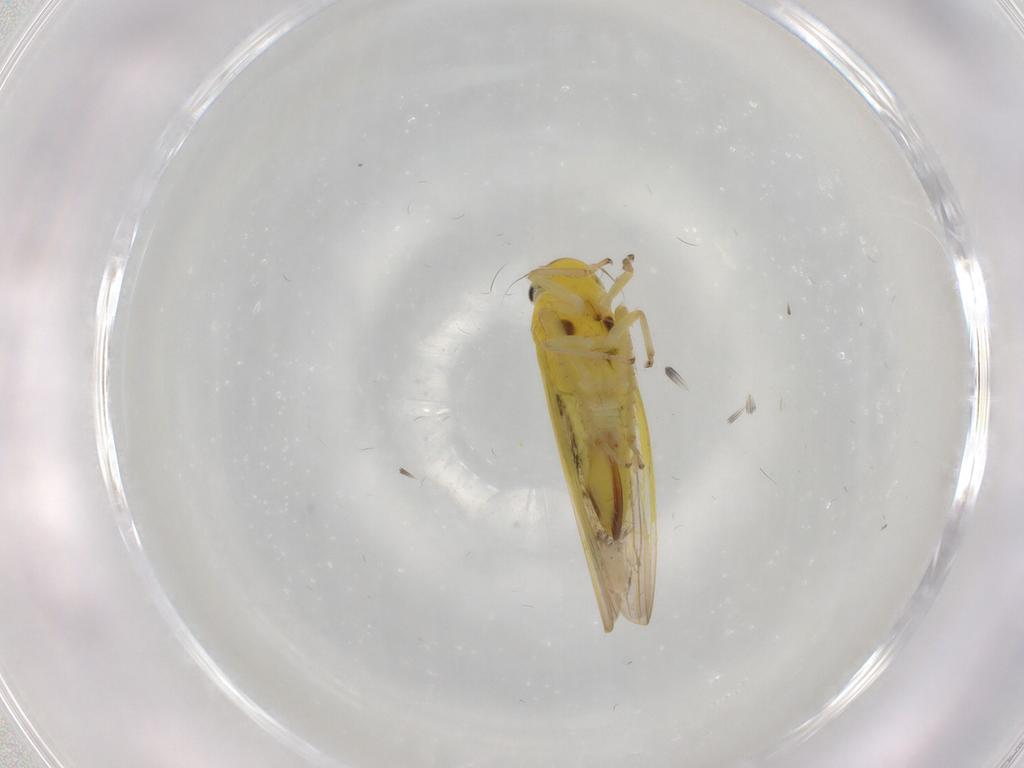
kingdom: Animalia
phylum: Arthropoda
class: Insecta
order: Hemiptera
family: Cicadellidae
